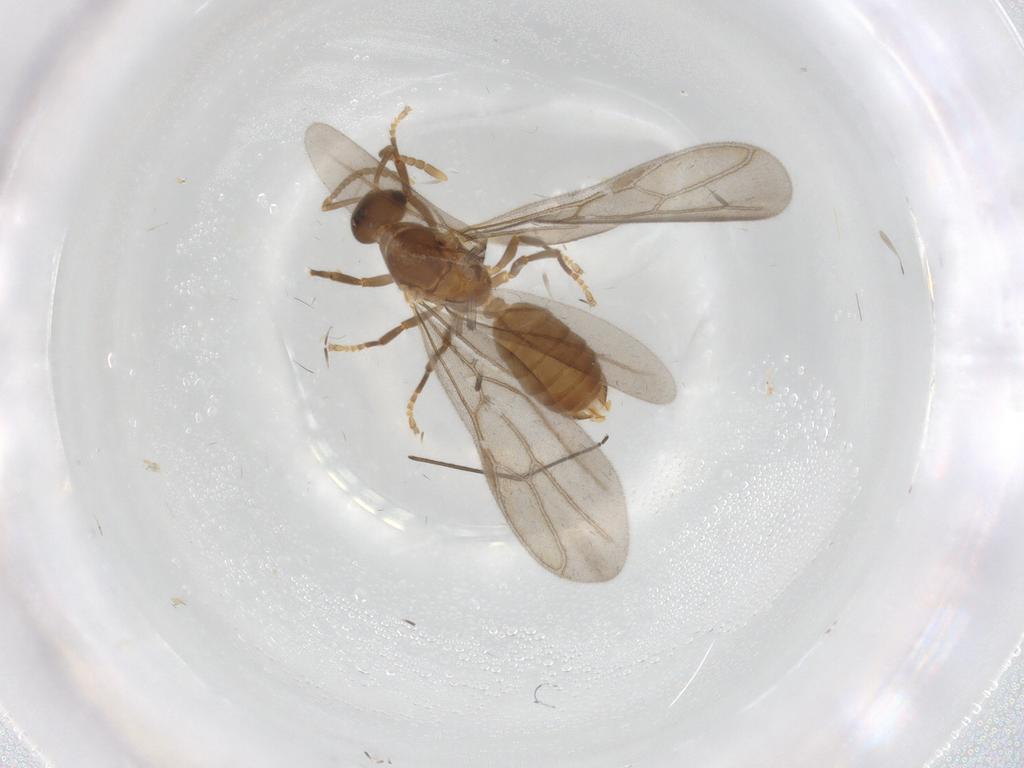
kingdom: Animalia
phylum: Arthropoda
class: Insecta
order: Hymenoptera
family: Formicidae
